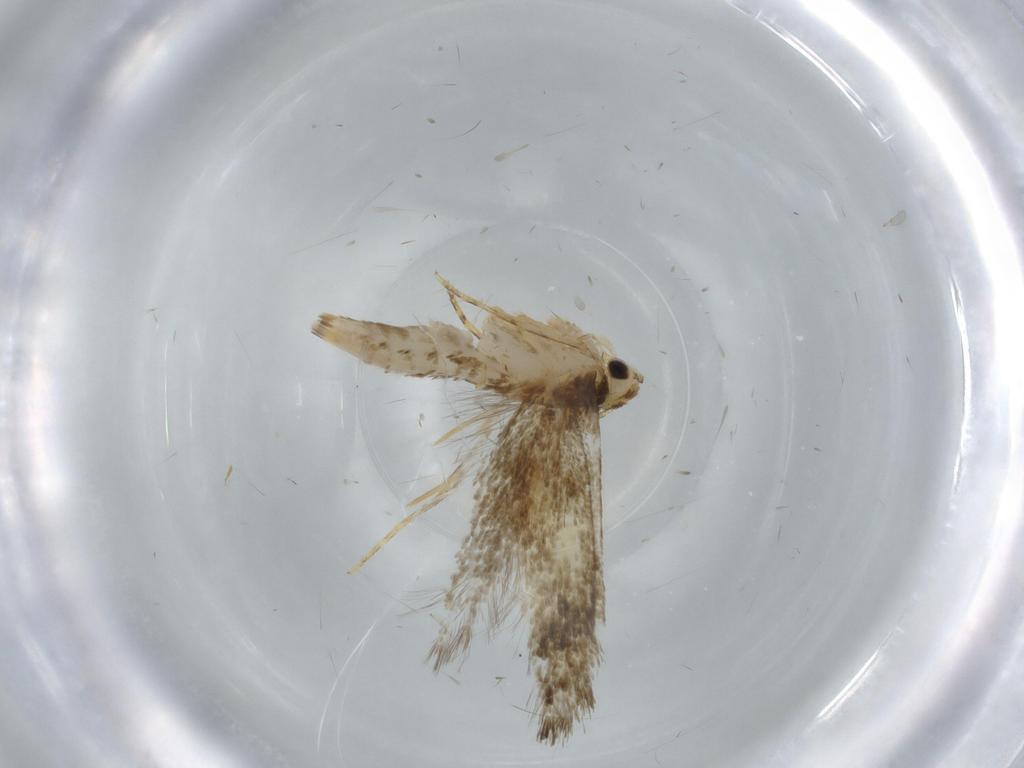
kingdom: Animalia
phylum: Arthropoda
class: Insecta
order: Lepidoptera
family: Tineidae
